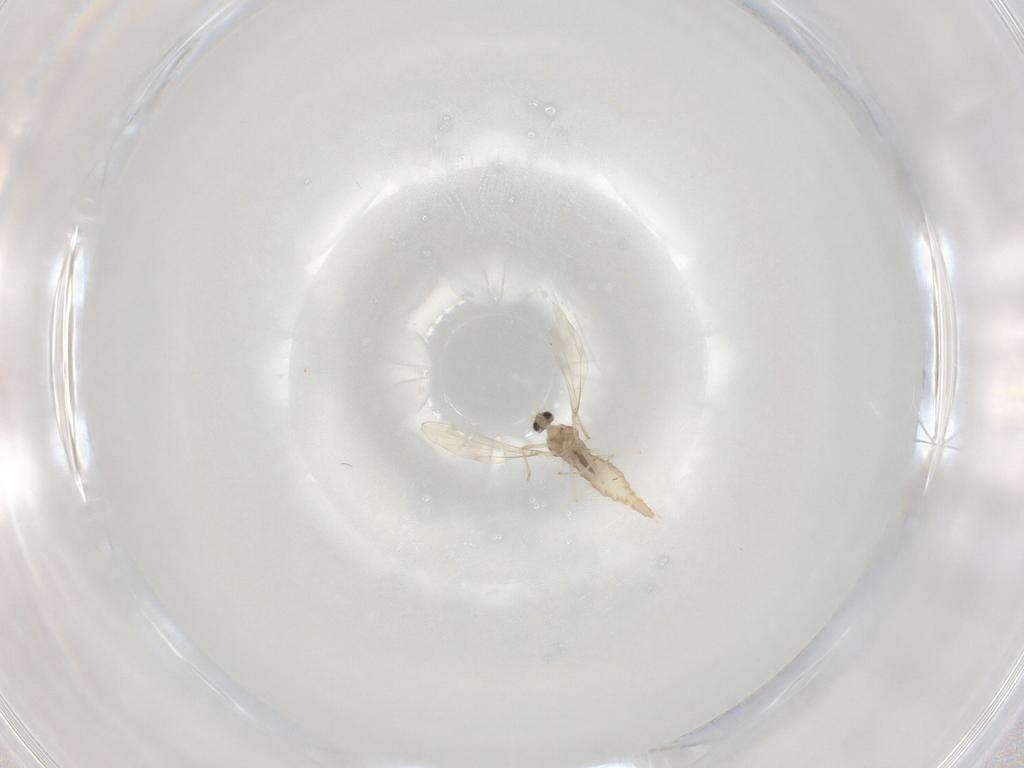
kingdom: Animalia
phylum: Arthropoda
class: Insecta
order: Diptera
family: Cecidomyiidae
